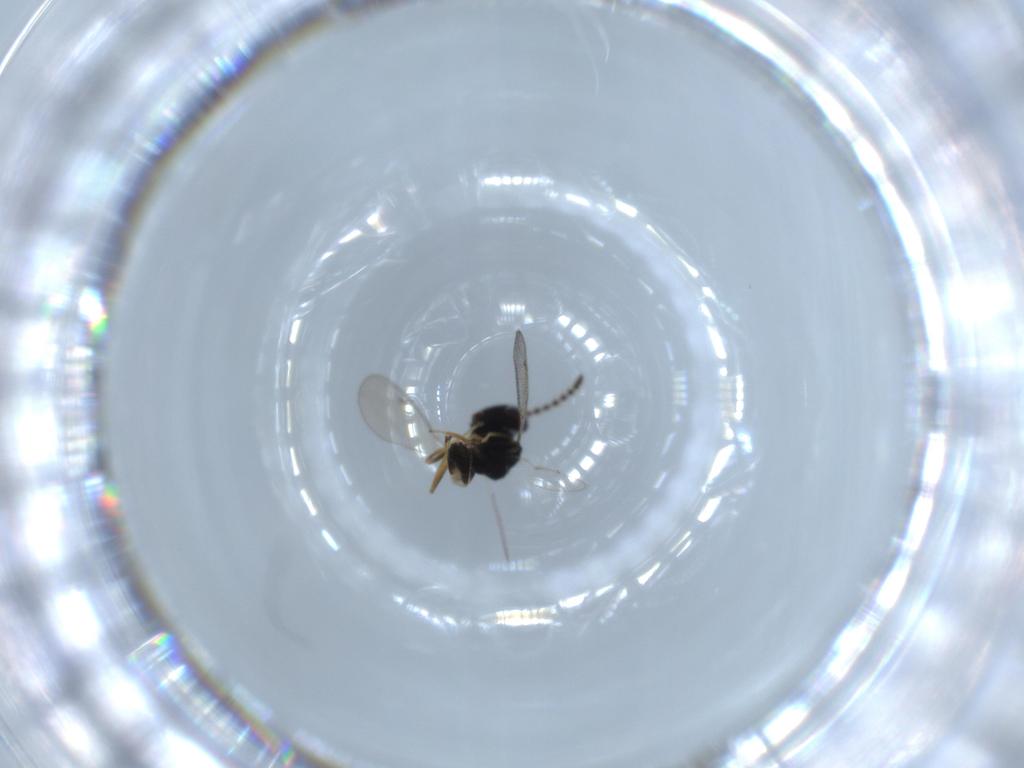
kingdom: Animalia
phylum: Arthropoda
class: Insecta
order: Hymenoptera
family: Pteromalidae
